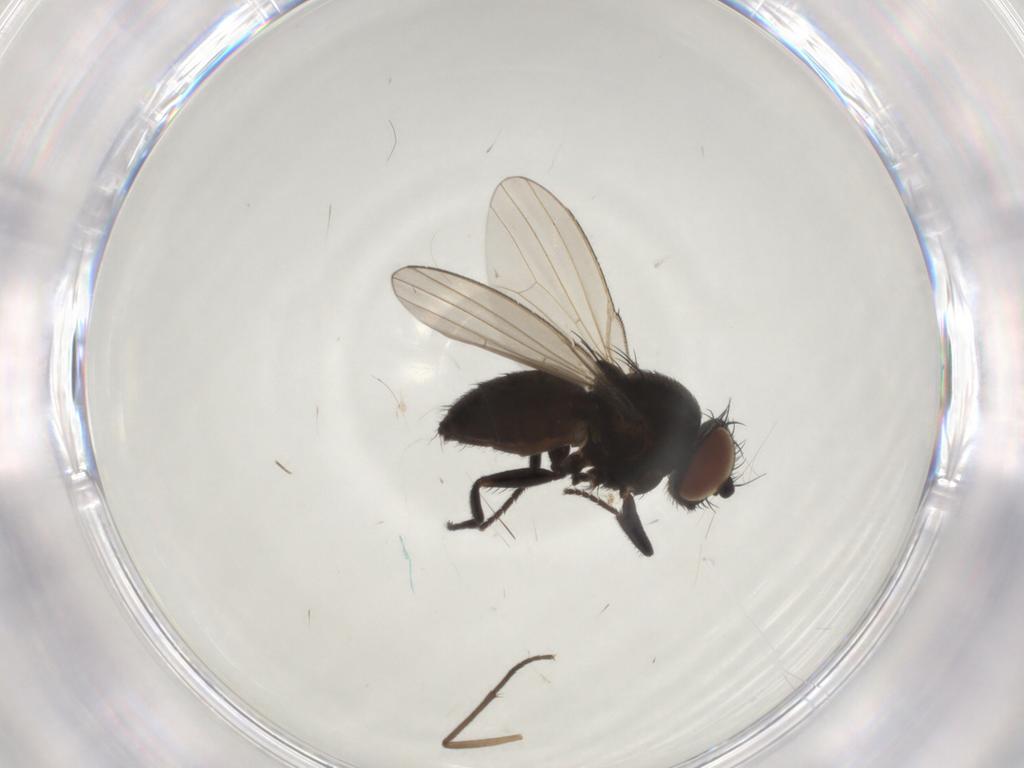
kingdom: Animalia
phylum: Arthropoda
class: Insecta
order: Diptera
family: Milichiidae
